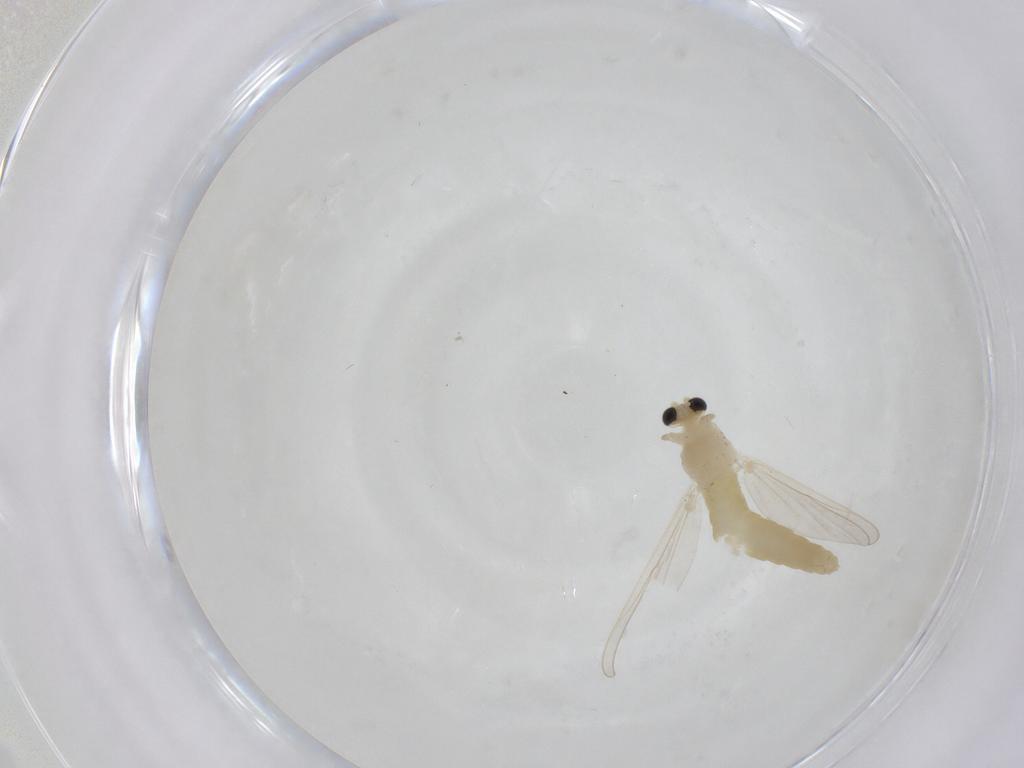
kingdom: Animalia
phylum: Arthropoda
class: Insecta
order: Diptera
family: Chironomidae
